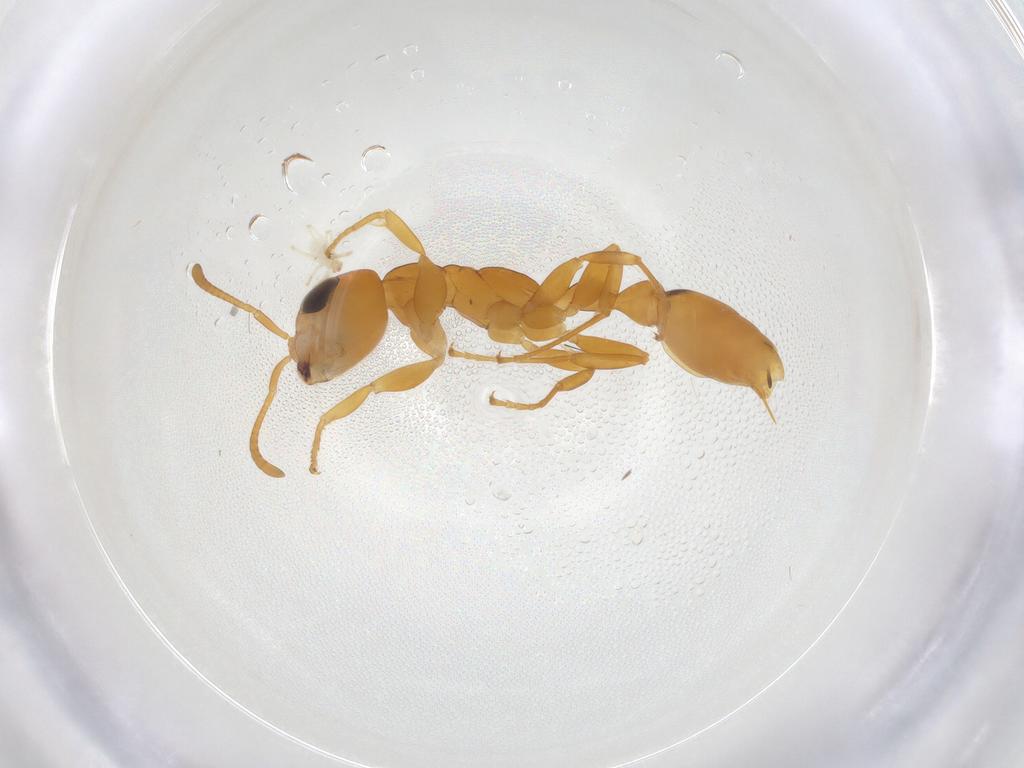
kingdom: Animalia
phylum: Arthropoda
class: Insecta
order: Hymenoptera
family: Formicidae
